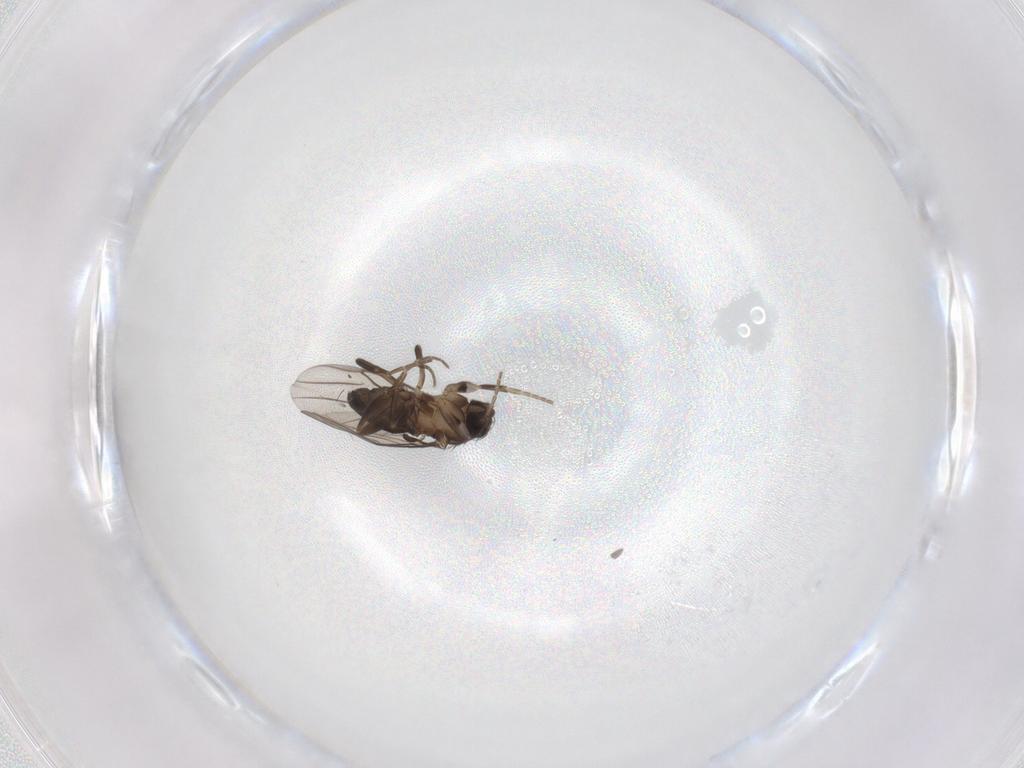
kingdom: Animalia
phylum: Arthropoda
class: Insecta
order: Diptera
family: Phoridae
